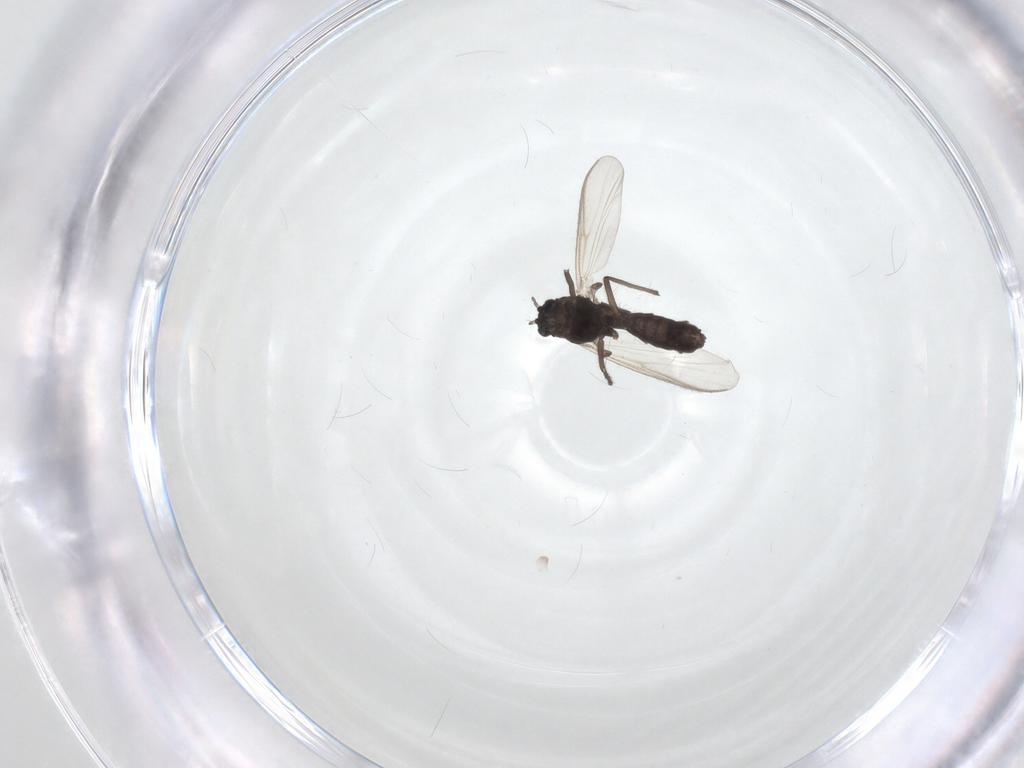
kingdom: Animalia
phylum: Arthropoda
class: Insecta
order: Diptera
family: Chironomidae
